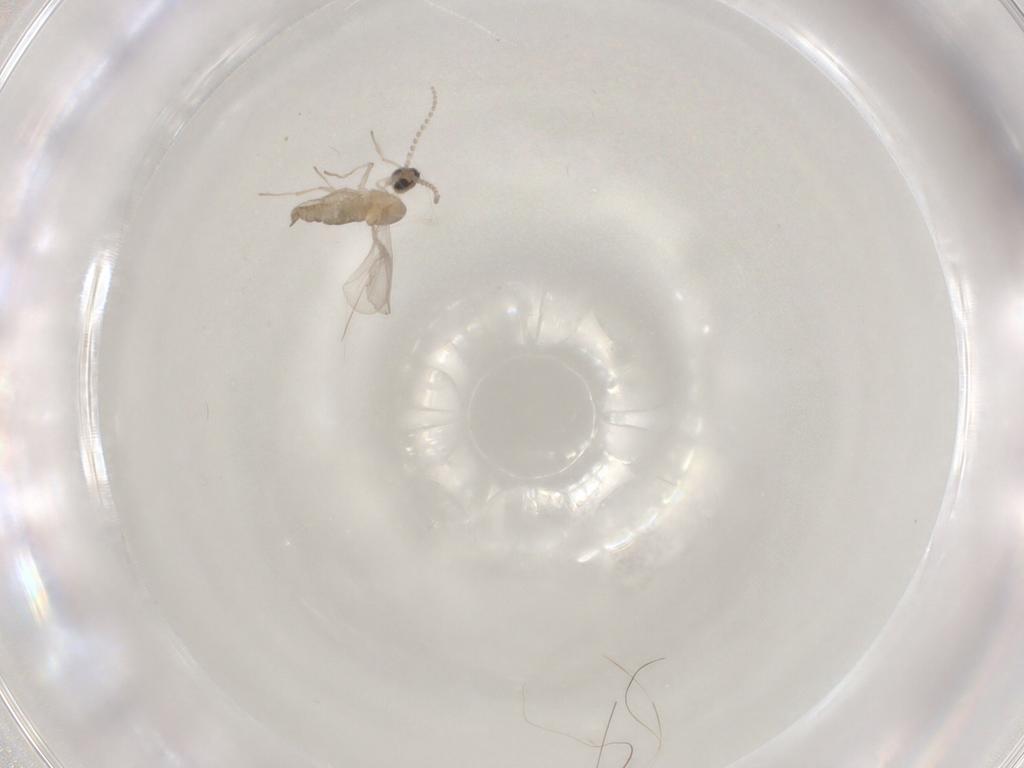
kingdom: Animalia
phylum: Arthropoda
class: Insecta
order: Diptera
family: Cecidomyiidae
